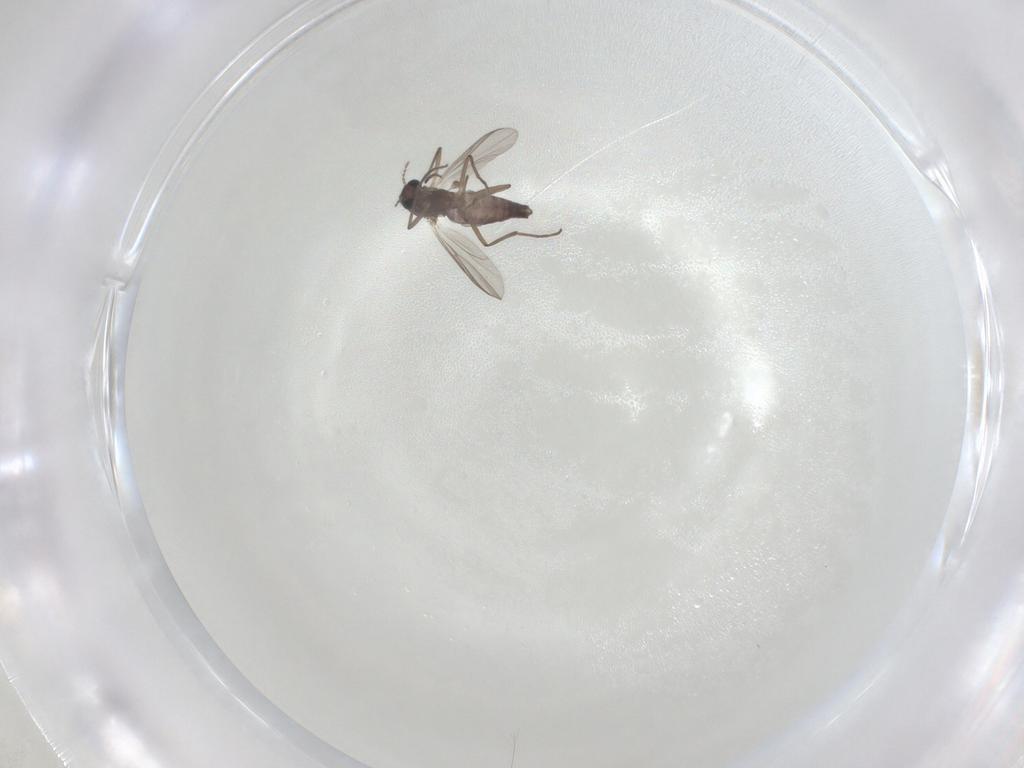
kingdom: Animalia
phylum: Arthropoda
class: Insecta
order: Diptera
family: Chironomidae
